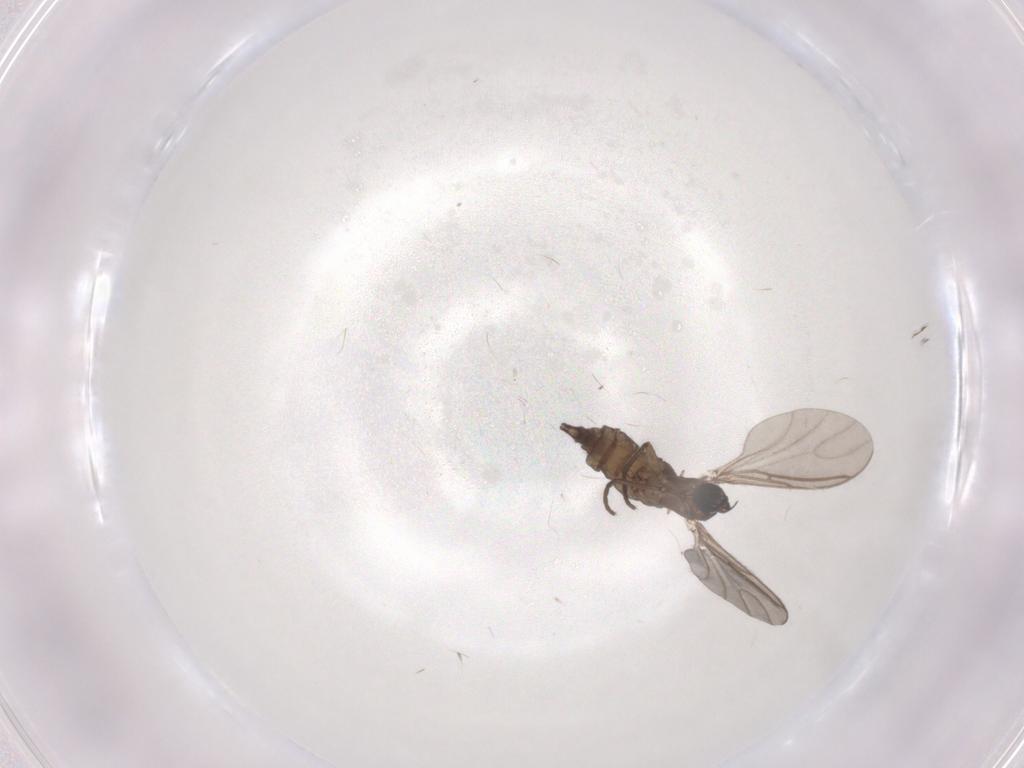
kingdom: Animalia
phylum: Arthropoda
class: Insecta
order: Diptera
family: Sciaridae
